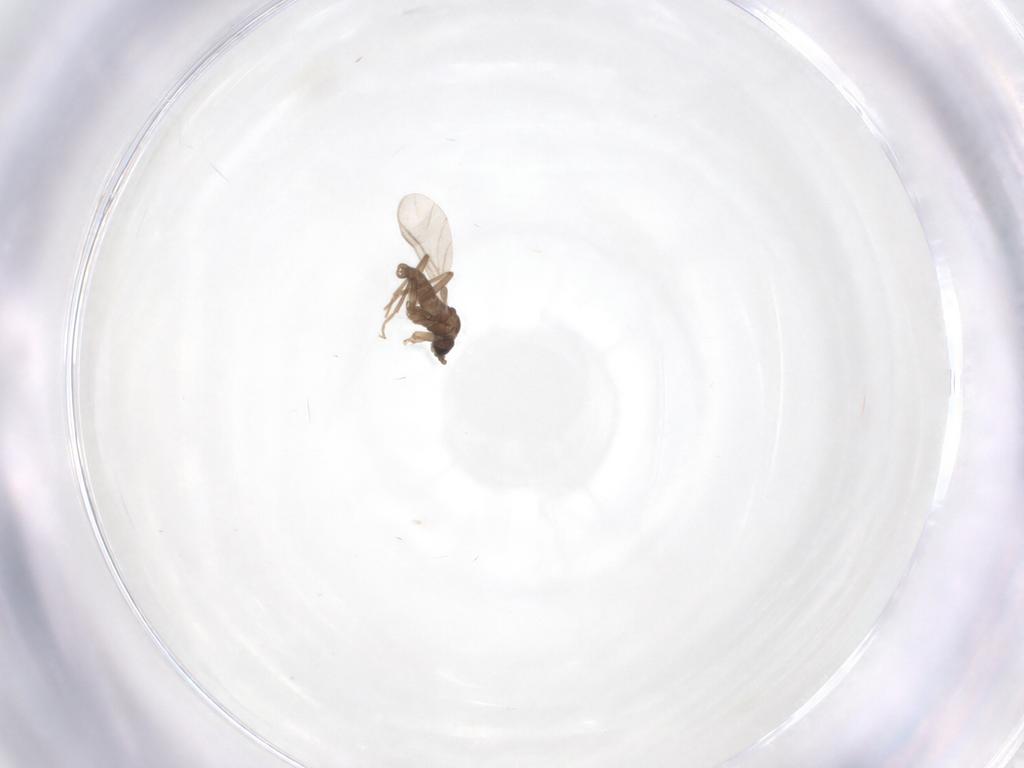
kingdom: Animalia
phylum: Arthropoda
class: Insecta
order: Diptera
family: Sciaridae
